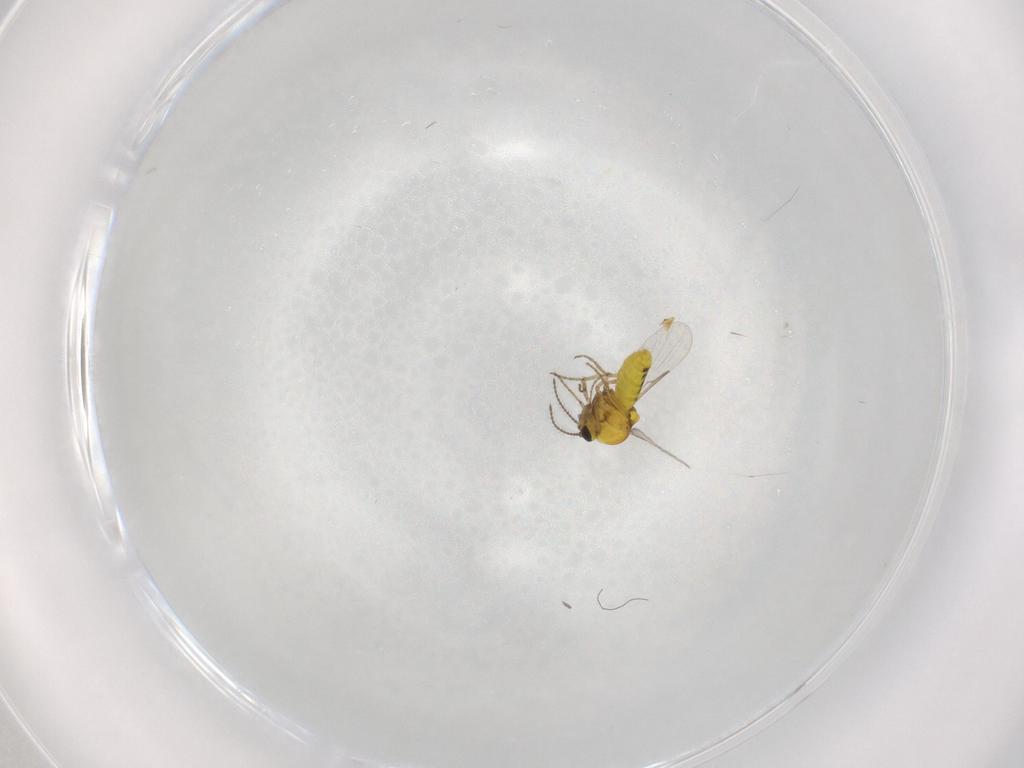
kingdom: Animalia
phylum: Arthropoda
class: Insecta
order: Diptera
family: Ceratopogonidae
